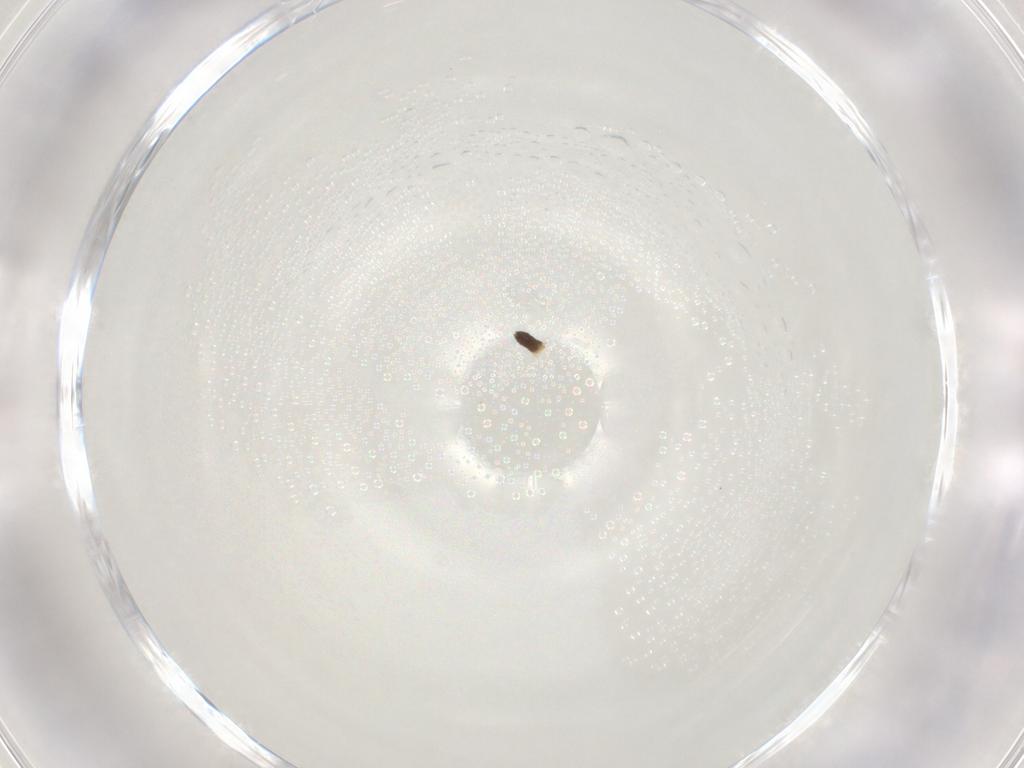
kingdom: Animalia
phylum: Arthropoda
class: Insecta
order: Diptera
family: Chironomidae
